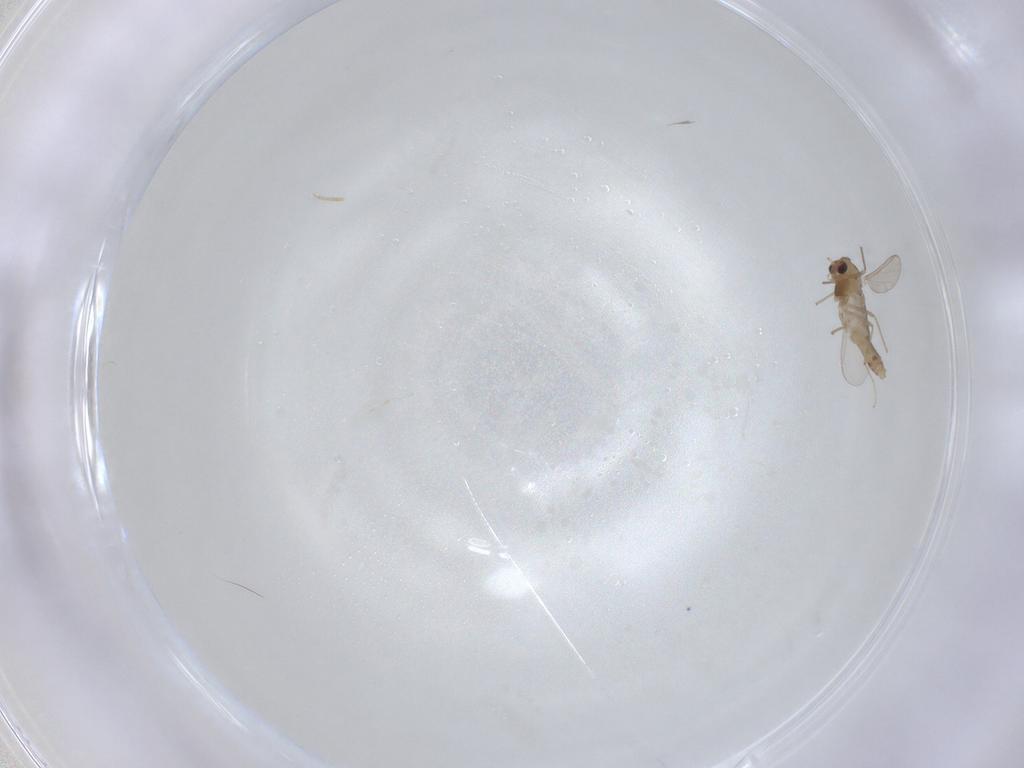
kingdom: Animalia
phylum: Arthropoda
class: Insecta
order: Diptera
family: Chironomidae
